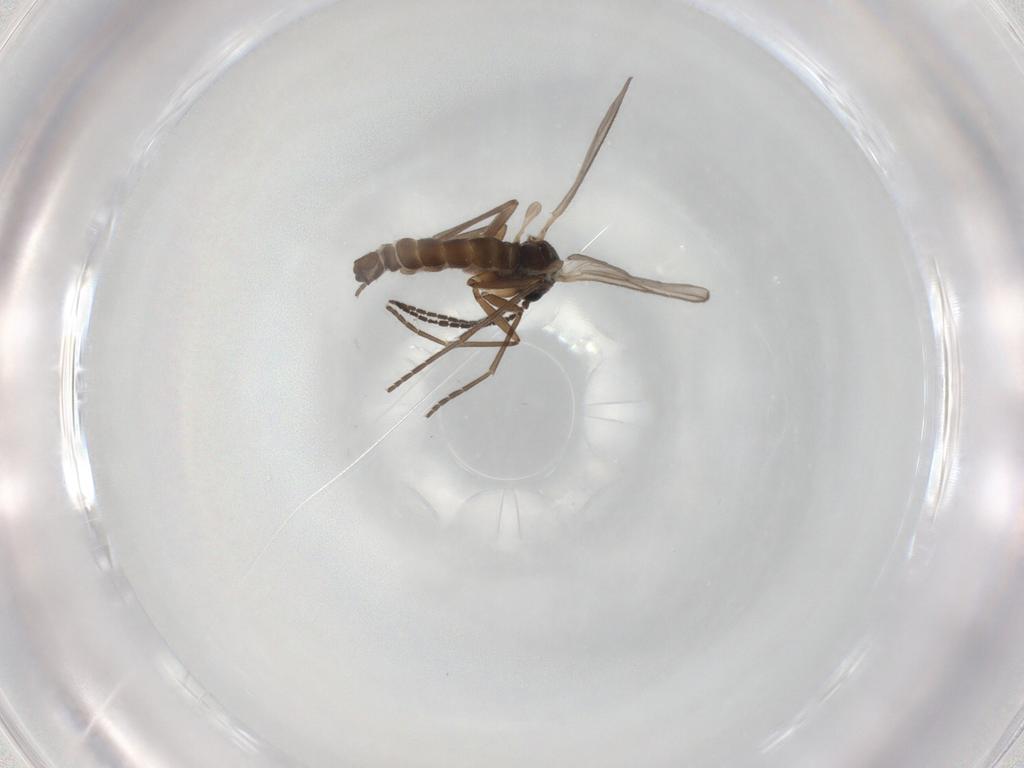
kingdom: Animalia
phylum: Arthropoda
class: Insecta
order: Diptera
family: Sciaridae
